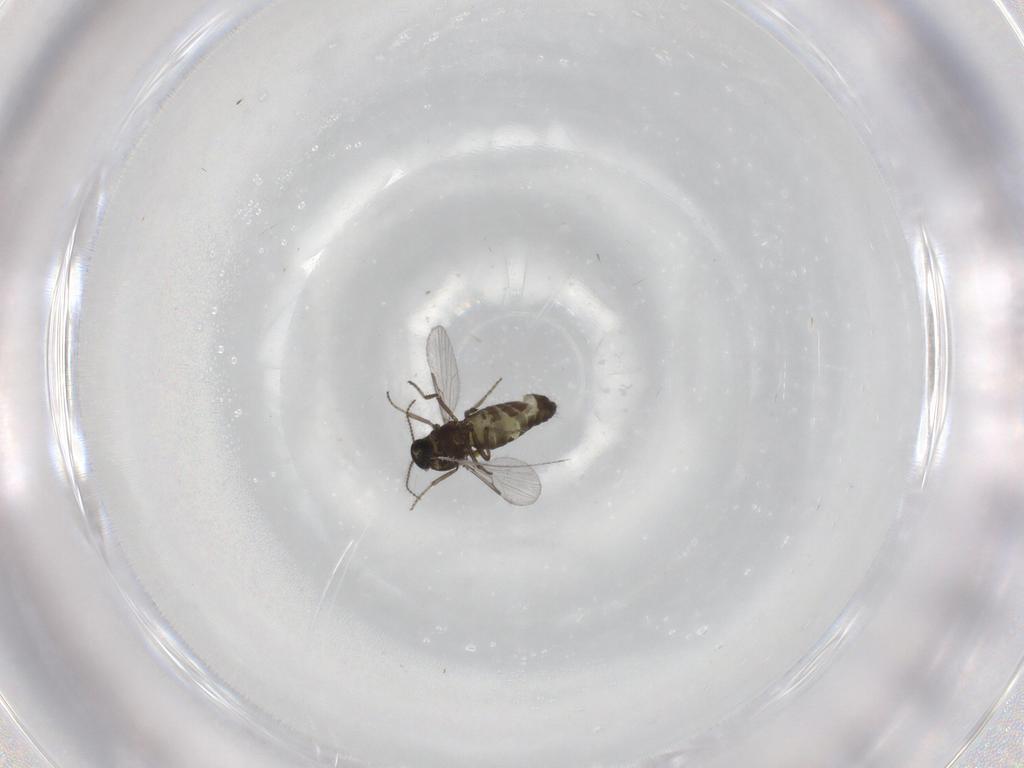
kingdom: Animalia
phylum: Arthropoda
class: Insecta
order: Diptera
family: Ceratopogonidae
